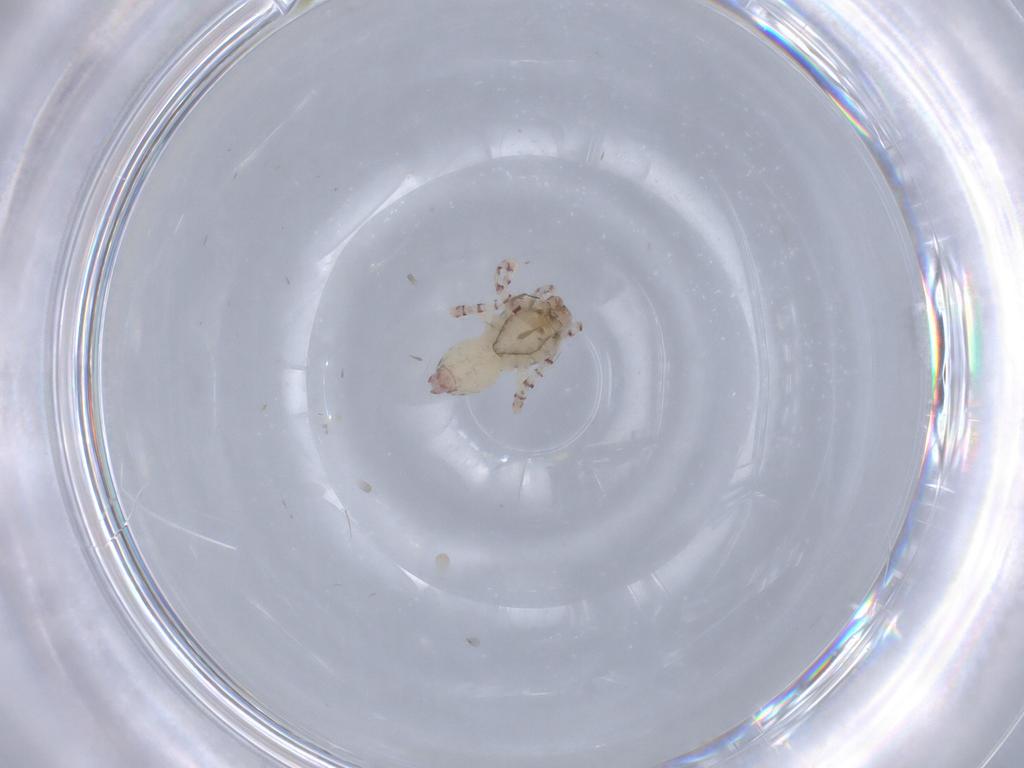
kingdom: Animalia
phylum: Arthropoda
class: Arachnida
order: Araneae
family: Anyphaenidae
